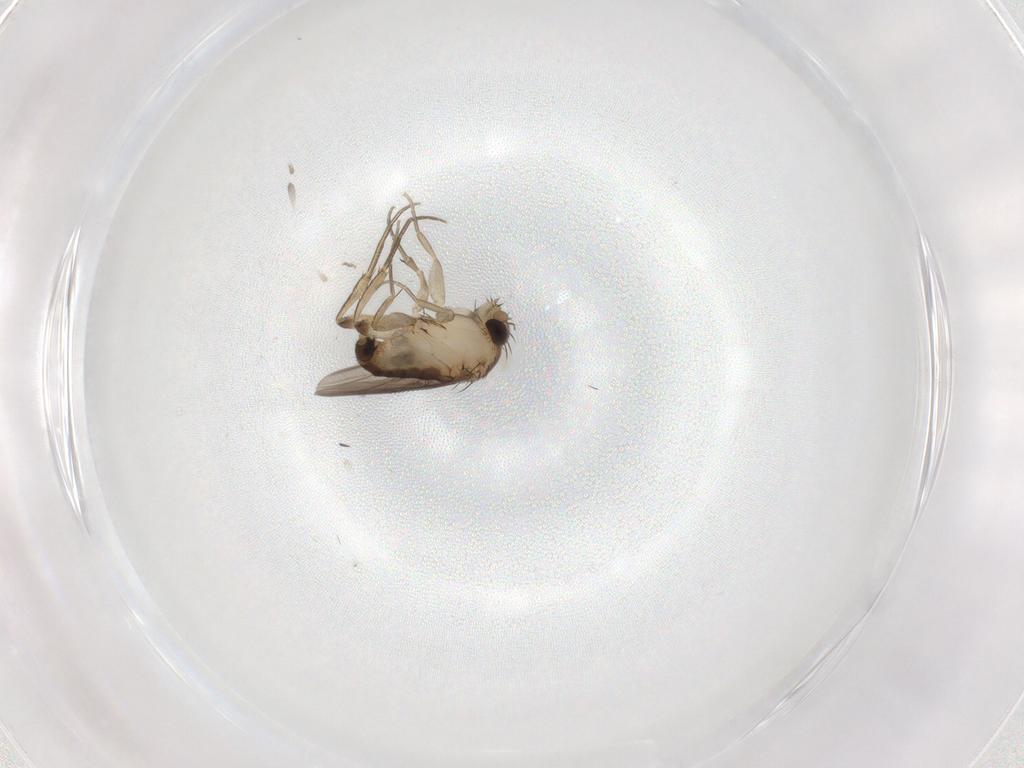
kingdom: Animalia
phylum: Arthropoda
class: Insecta
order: Diptera
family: Phoridae
